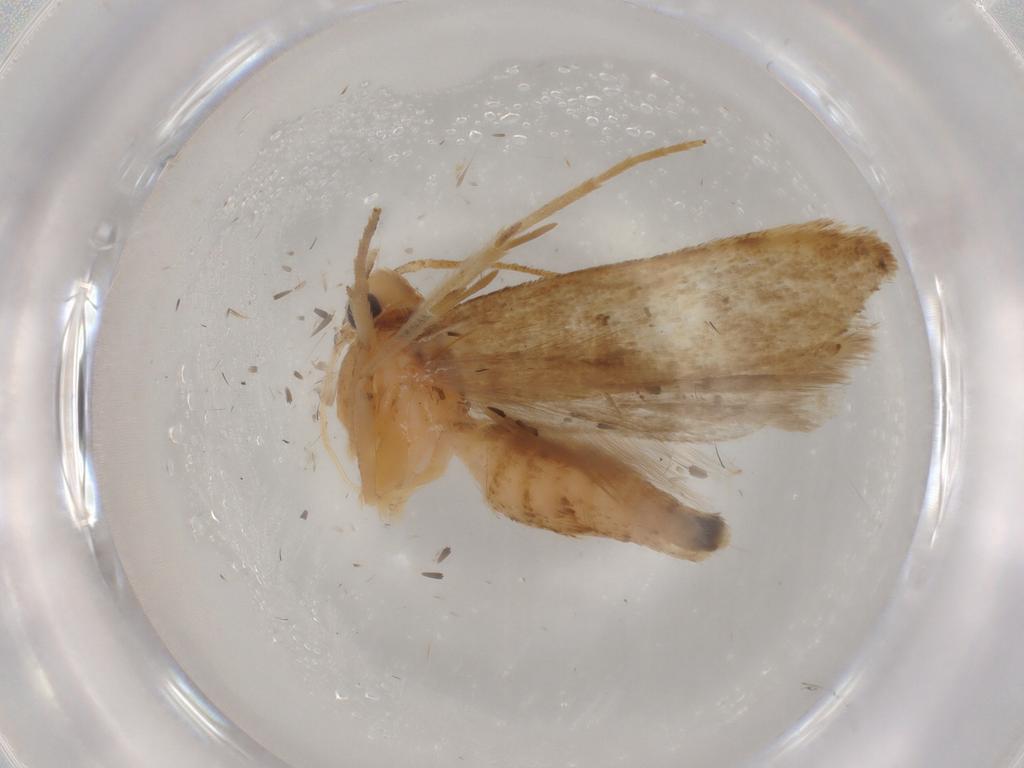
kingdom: Animalia
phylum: Arthropoda
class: Insecta
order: Lepidoptera
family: Gelechiidae
